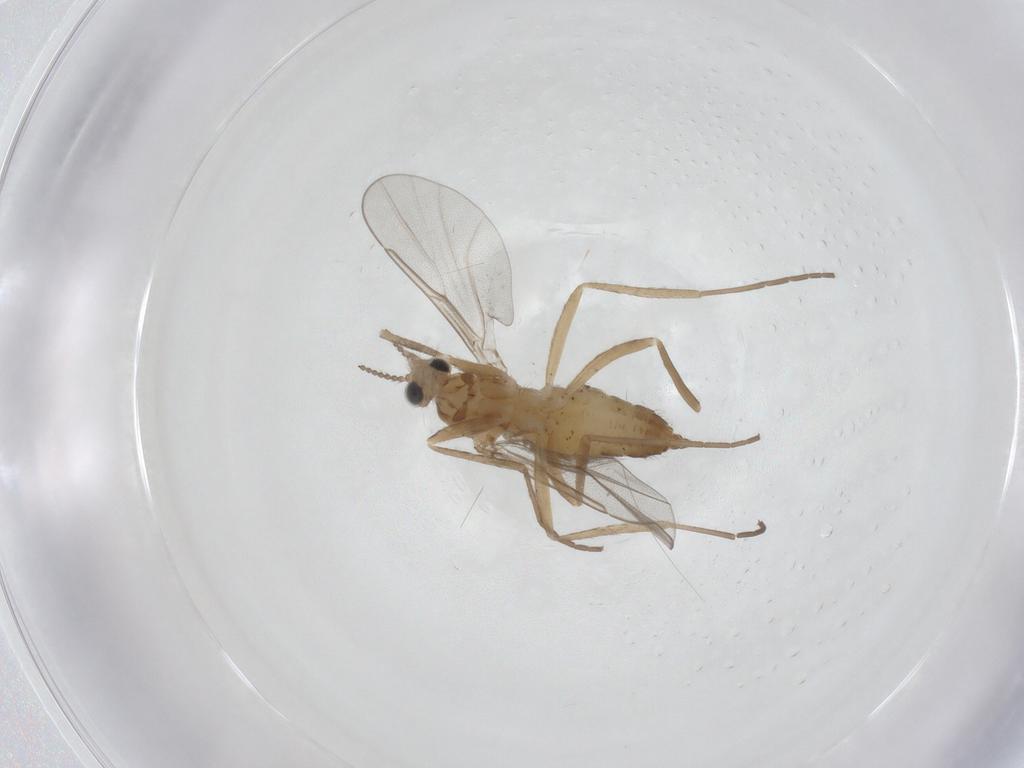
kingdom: Animalia
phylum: Arthropoda
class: Insecta
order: Diptera
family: Cecidomyiidae
